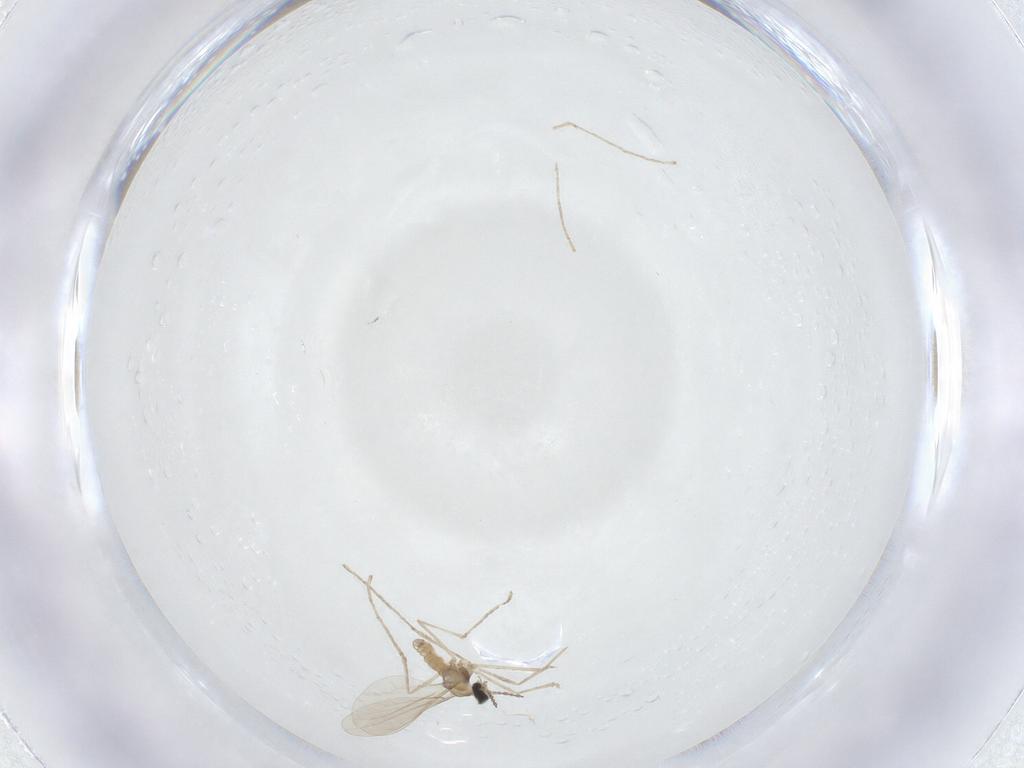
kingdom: Animalia
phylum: Arthropoda
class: Insecta
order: Diptera
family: Cecidomyiidae
